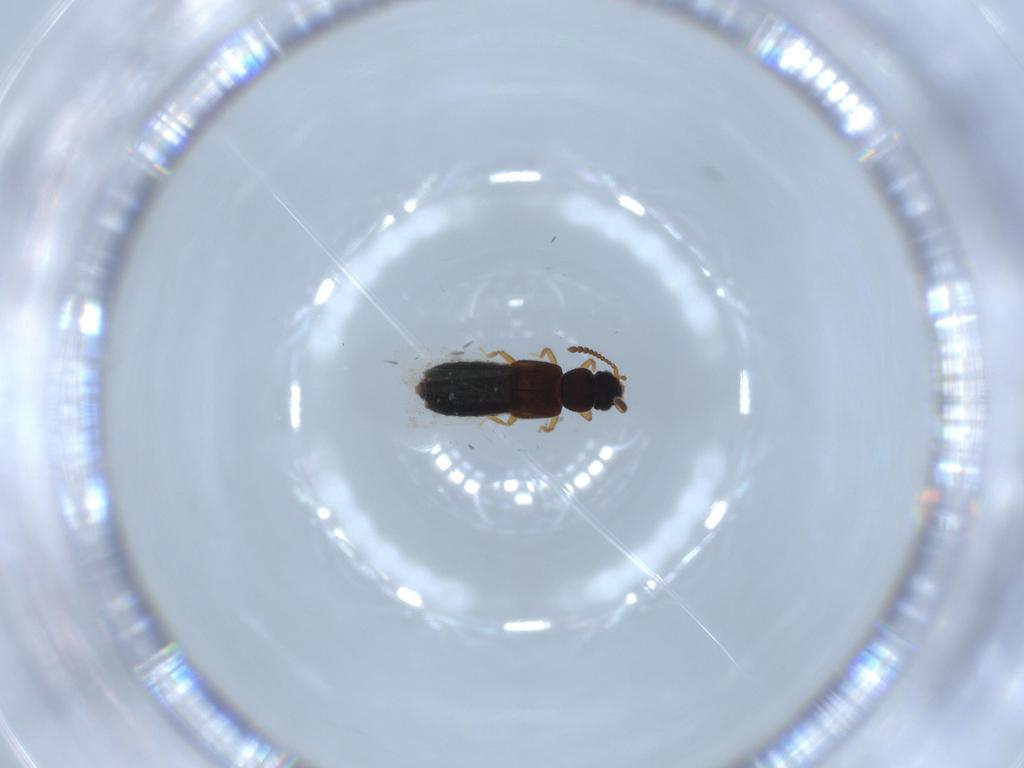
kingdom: Animalia
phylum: Arthropoda
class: Insecta
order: Coleoptera
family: Staphylinidae
